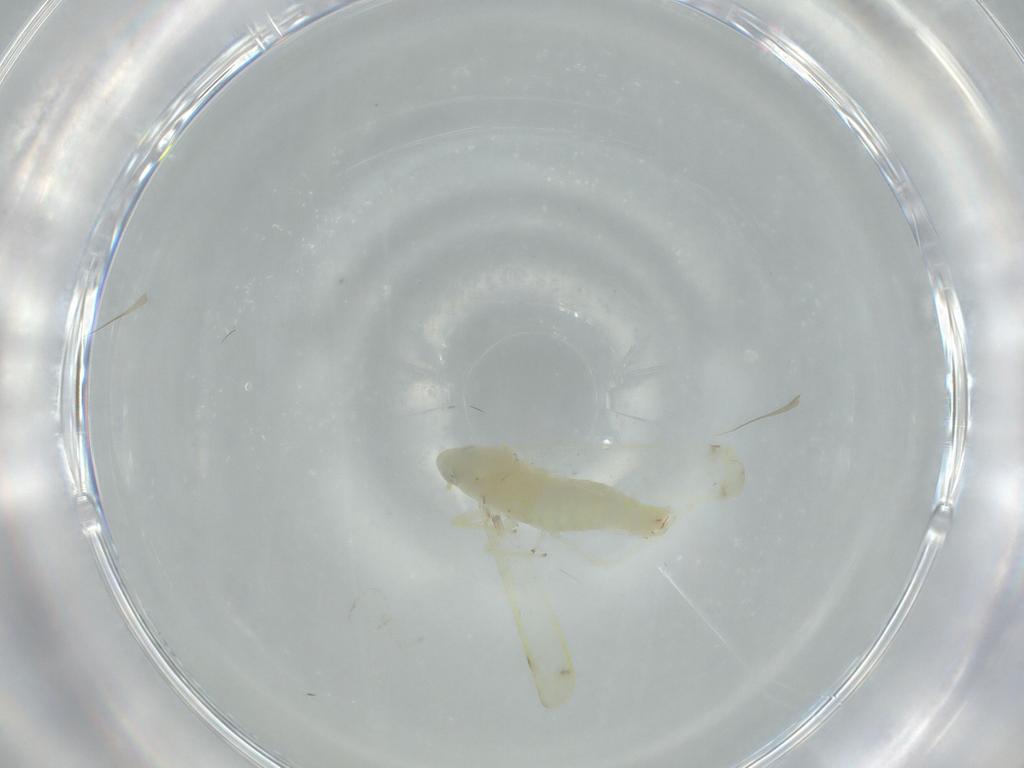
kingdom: Animalia
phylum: Arthropoda
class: Insecta
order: Hemiptera
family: Cicadellidae
